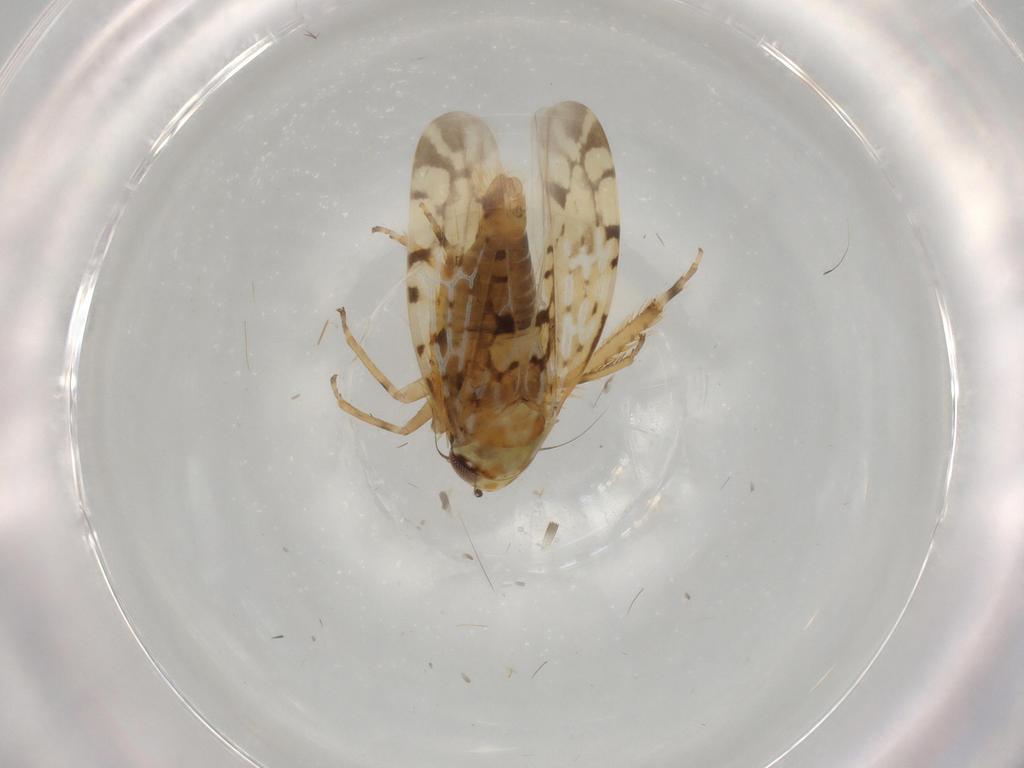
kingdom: Animalia
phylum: Arthropoda
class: Insecta
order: Hemiptera
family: Cicadellidae
